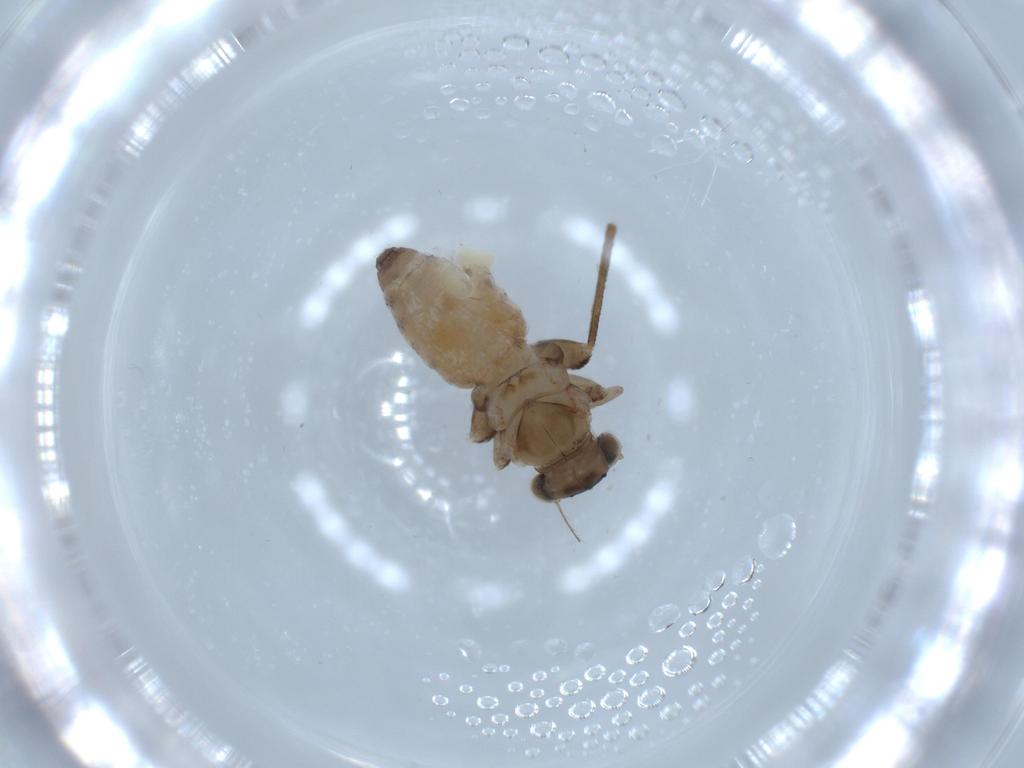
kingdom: Animalia
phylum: Arthropoda
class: Insecta
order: Psocodea
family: Lepidopsocidae
